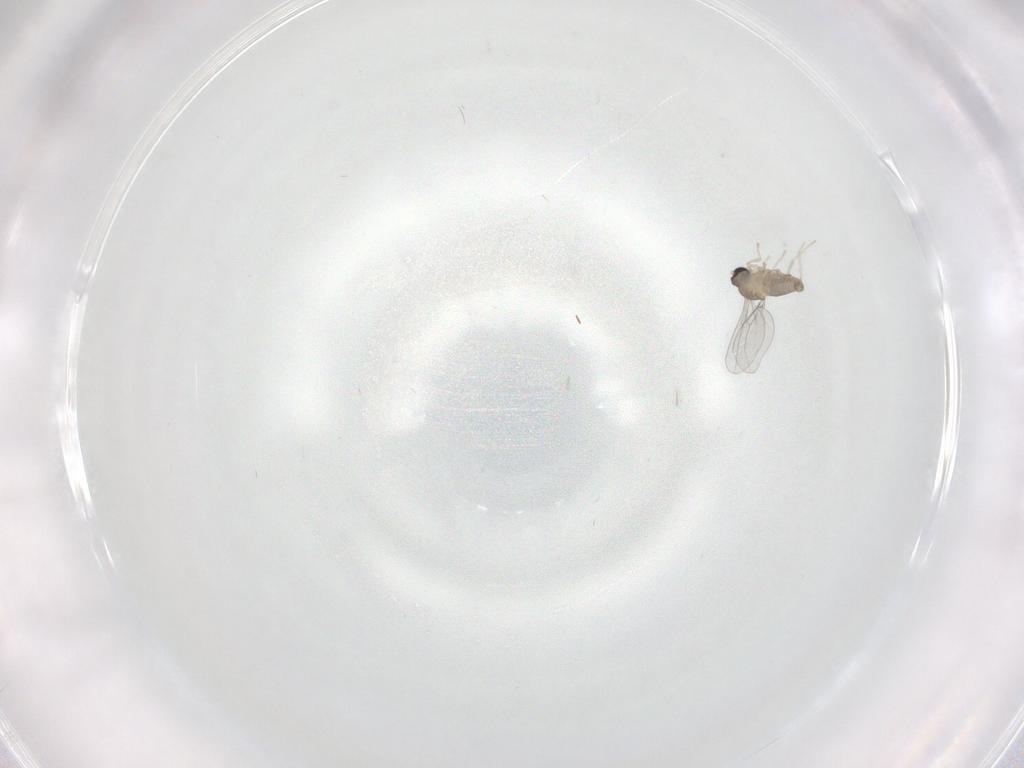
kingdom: Animalia
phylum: Arthropoda
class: Insecta
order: Diptera
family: Cecidomyiidae
